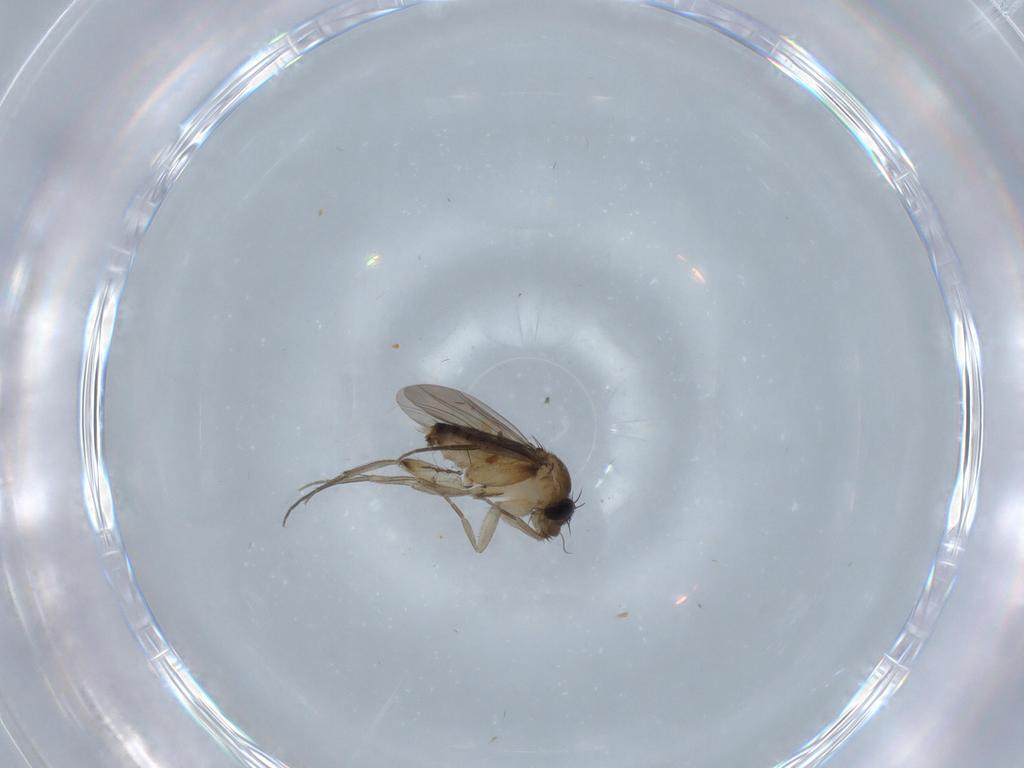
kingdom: Animalia
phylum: Arthropoda
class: Insecta
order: Diptera
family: Phoridae
